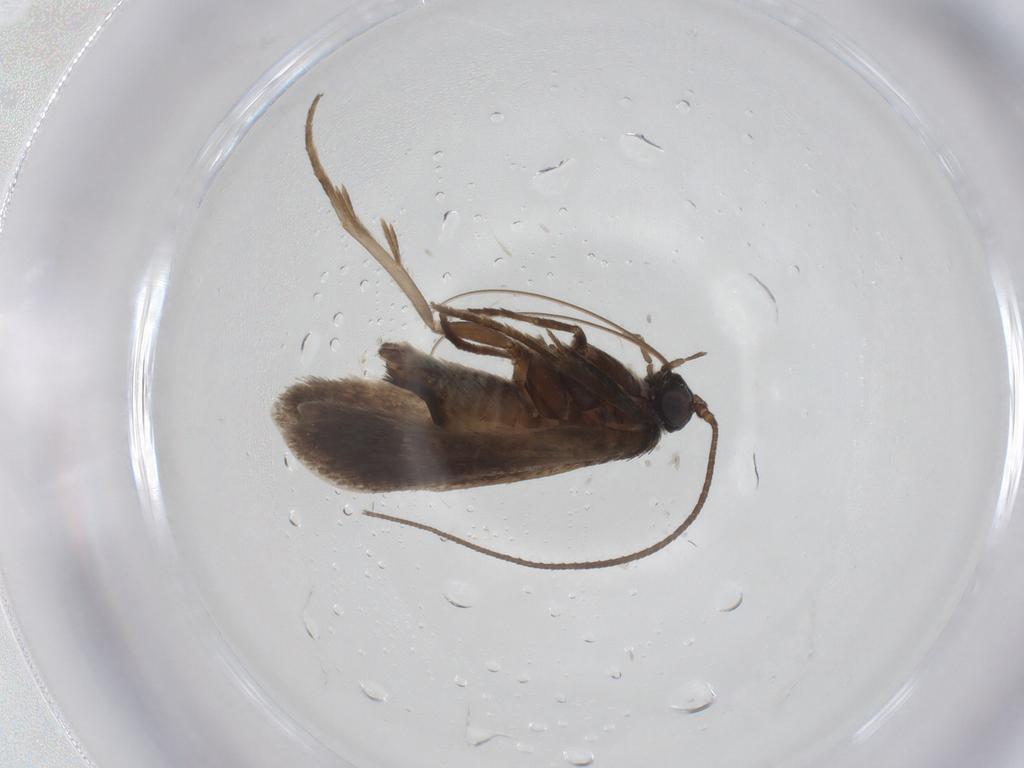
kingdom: Animalia
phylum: Arthropoda
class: Insecta
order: Lepidoptera
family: Adelidae
